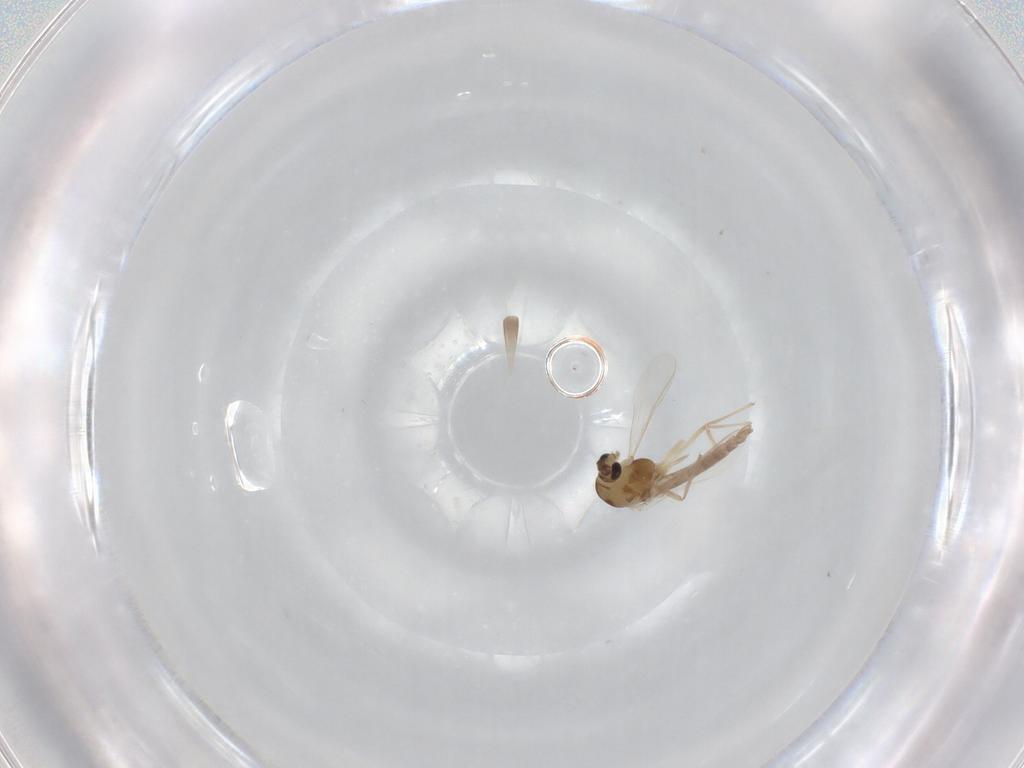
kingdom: Animalia
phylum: Arthropoda
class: Insecta
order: Diptera
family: Chironomidae
